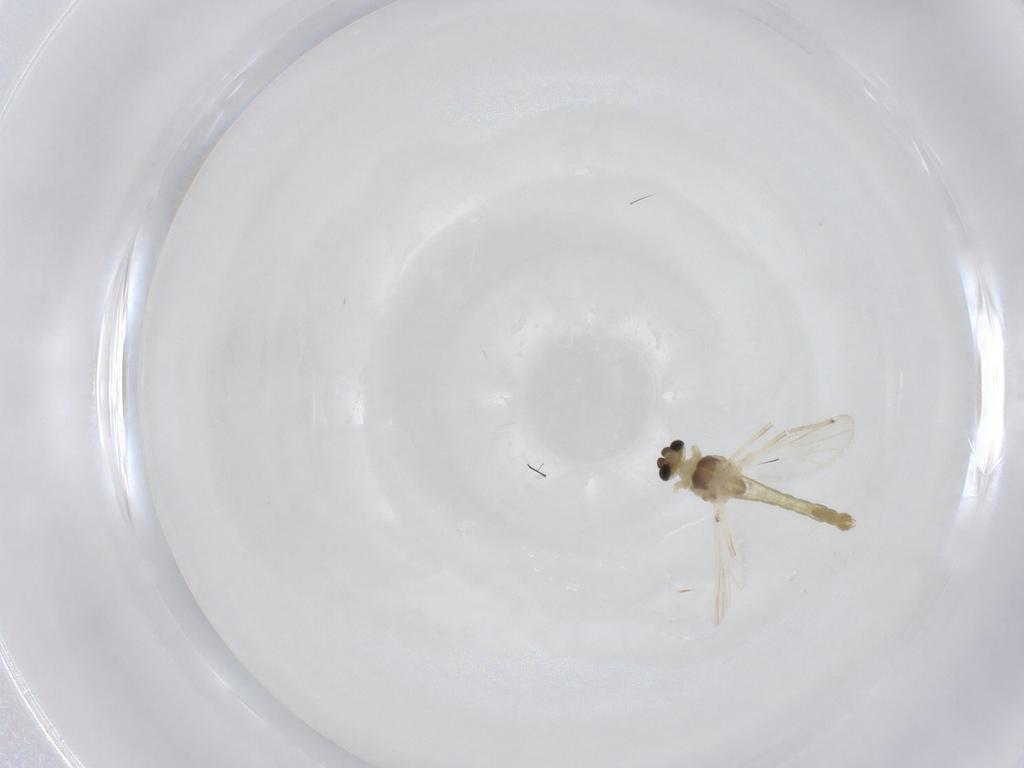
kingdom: Animalia
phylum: Arthropoda
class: Insecta
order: Diptera
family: Chironomidae
